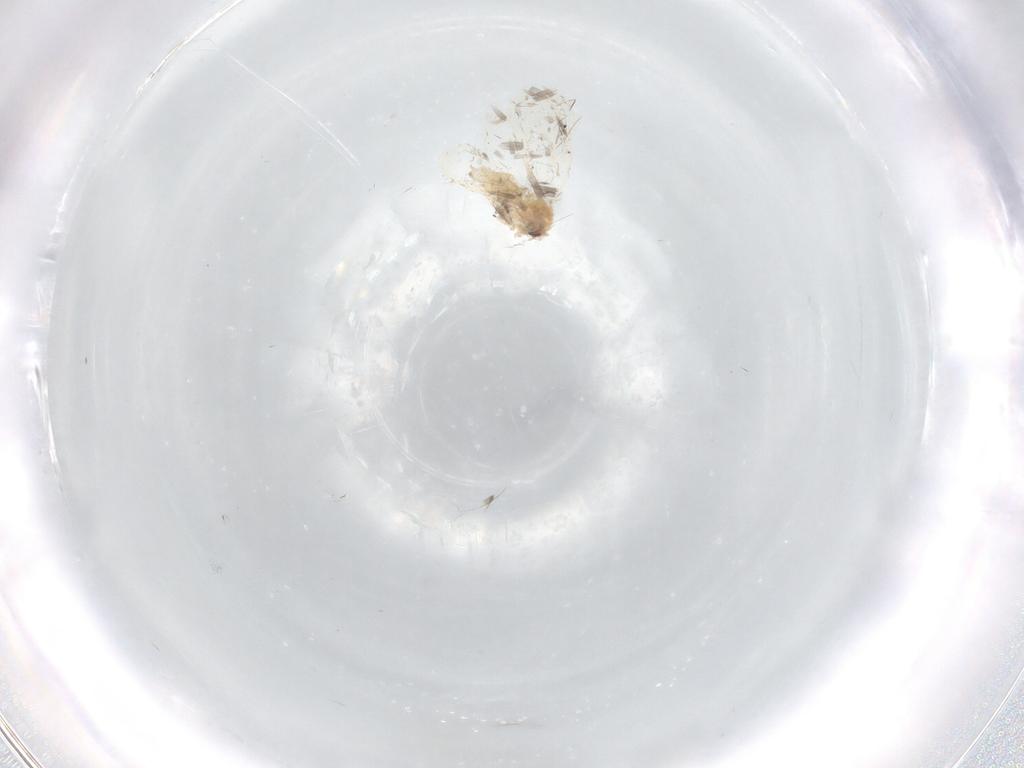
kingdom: Animalia
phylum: Arthropoda
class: Insecta
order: Hemiptera
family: Aleyrodidae
